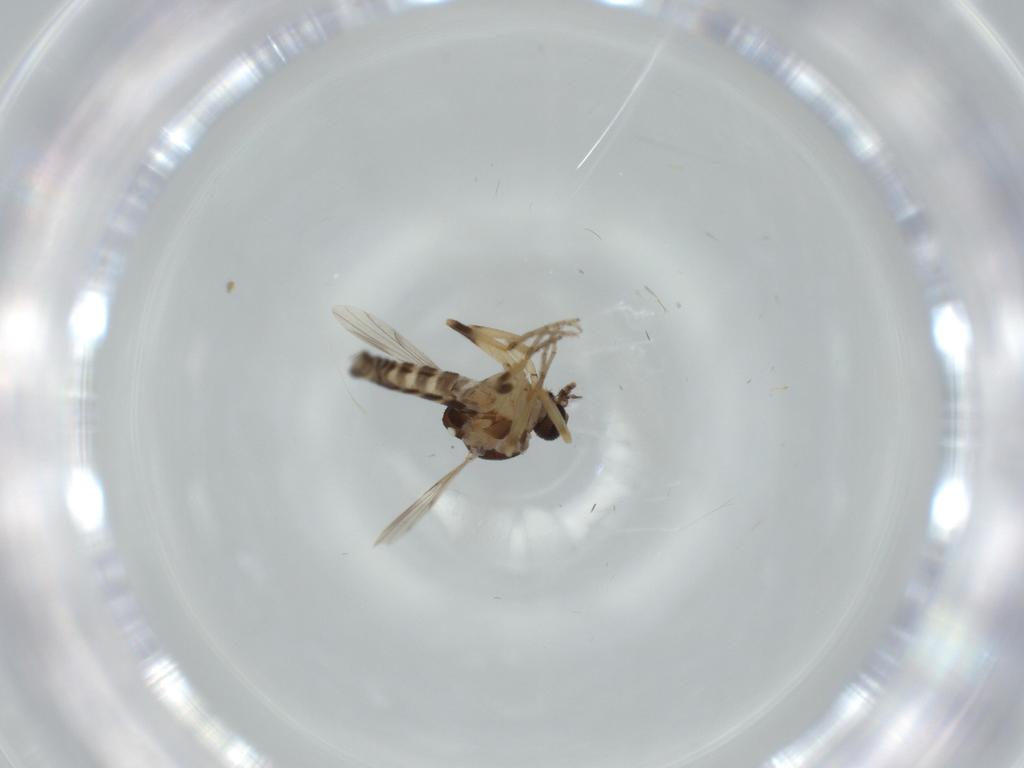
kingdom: Animalia
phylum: Arthropoda
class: Insecta
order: Diptera
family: Ceratopogonidae
